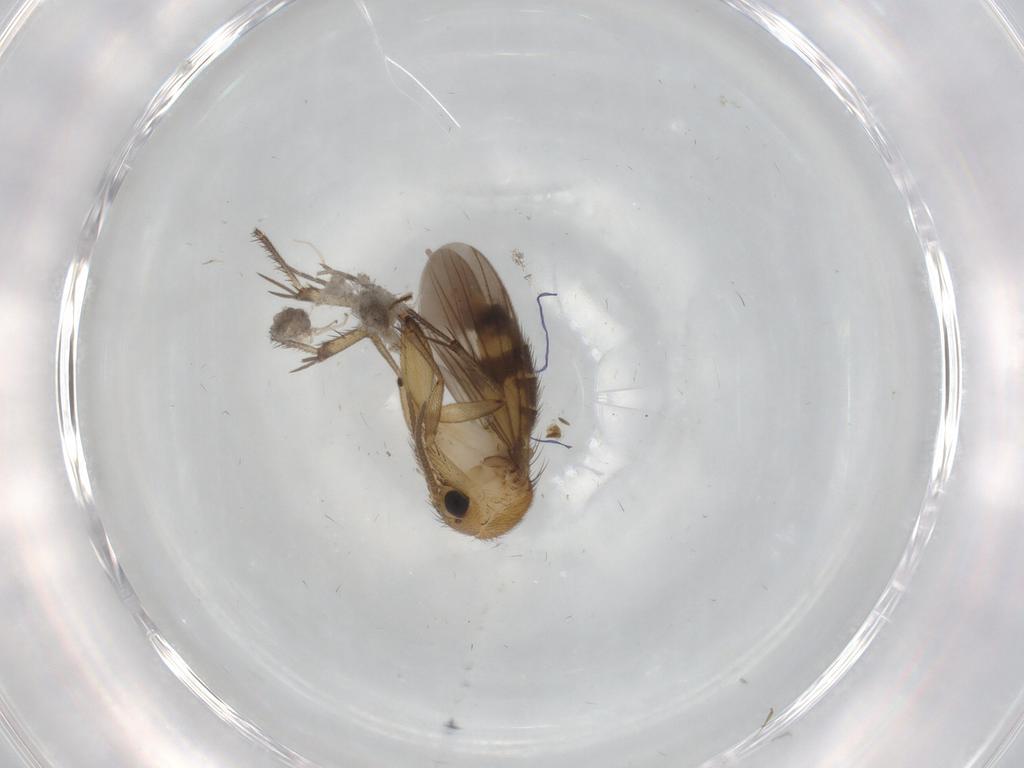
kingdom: Animalia
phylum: Arthropoda
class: Insecta
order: Diptera
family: Cecidomyiidae
